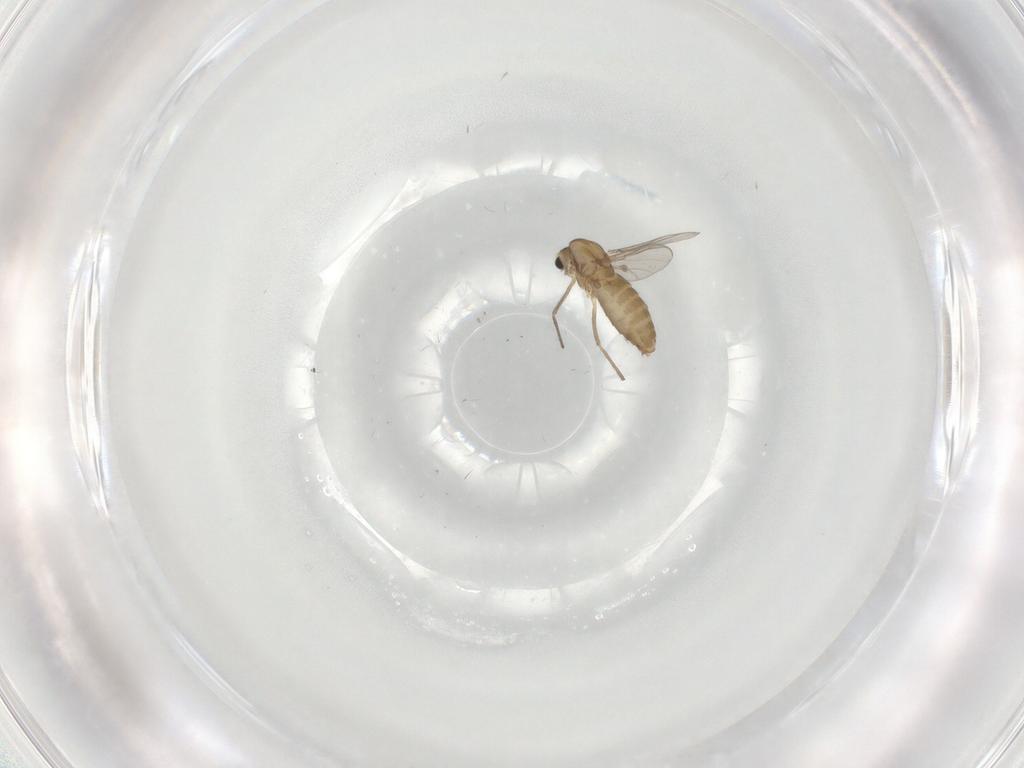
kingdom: Animalia
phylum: Arthropoda
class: Insecta
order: Diptera
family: Chironomidae
